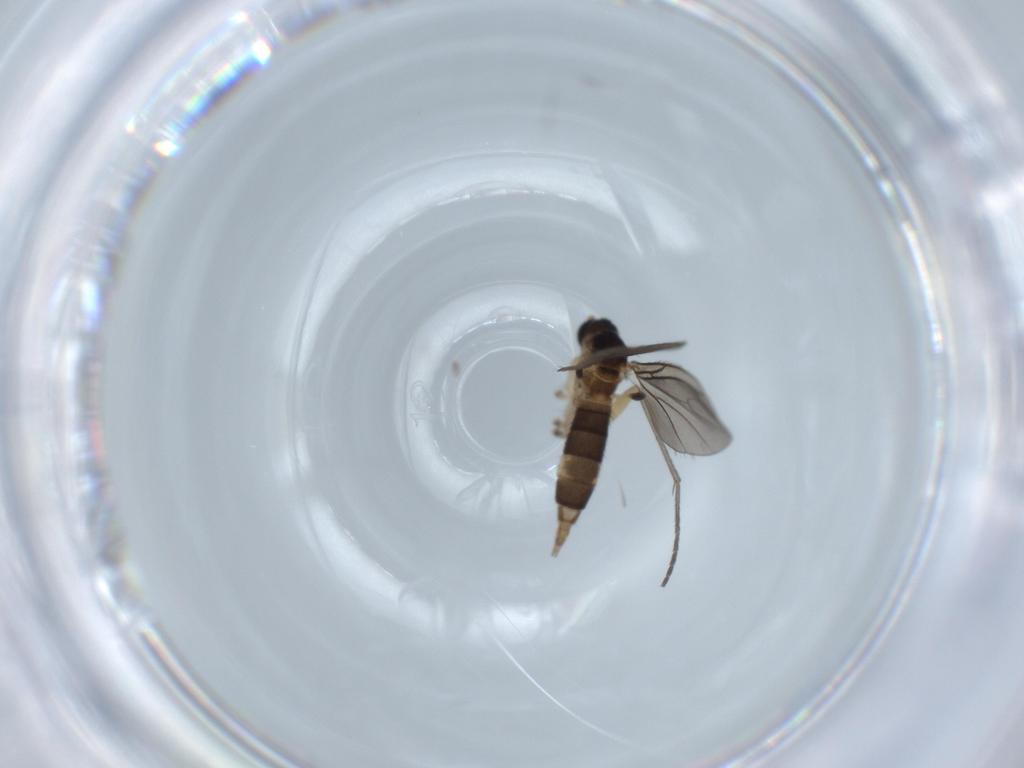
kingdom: Animalia
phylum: Arthropoda
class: Insecta
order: Diptera
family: Sciaridae
